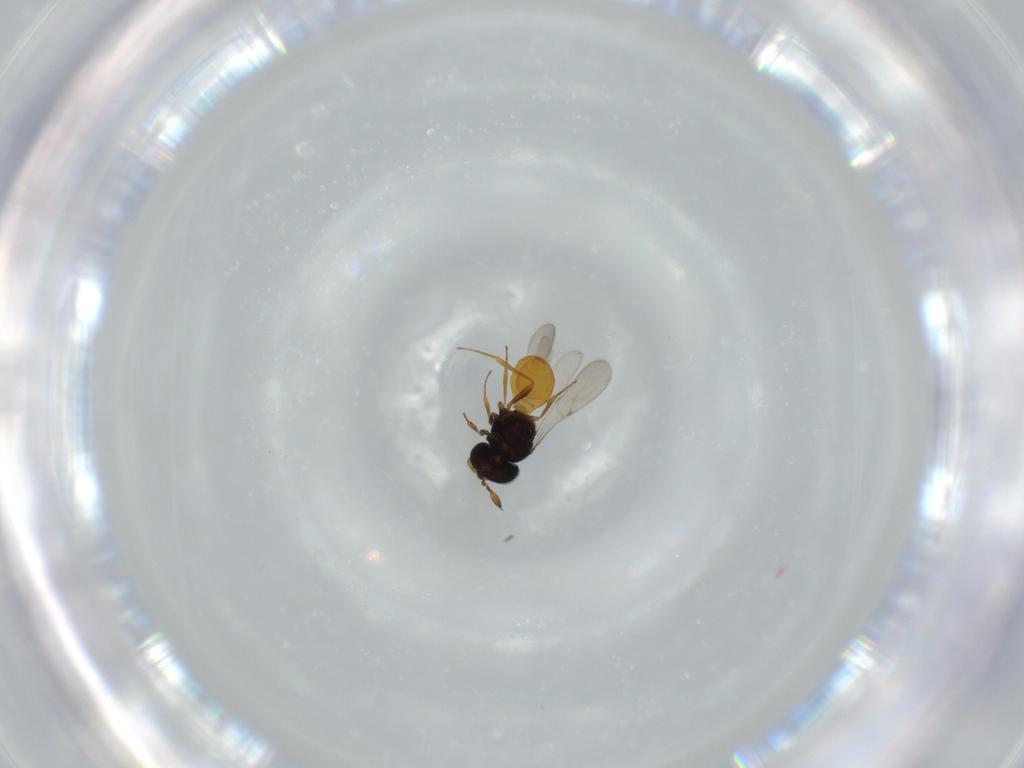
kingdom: Animalia
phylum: Arthropoda
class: Insecta
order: Hymenoptera
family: Scelionidae
